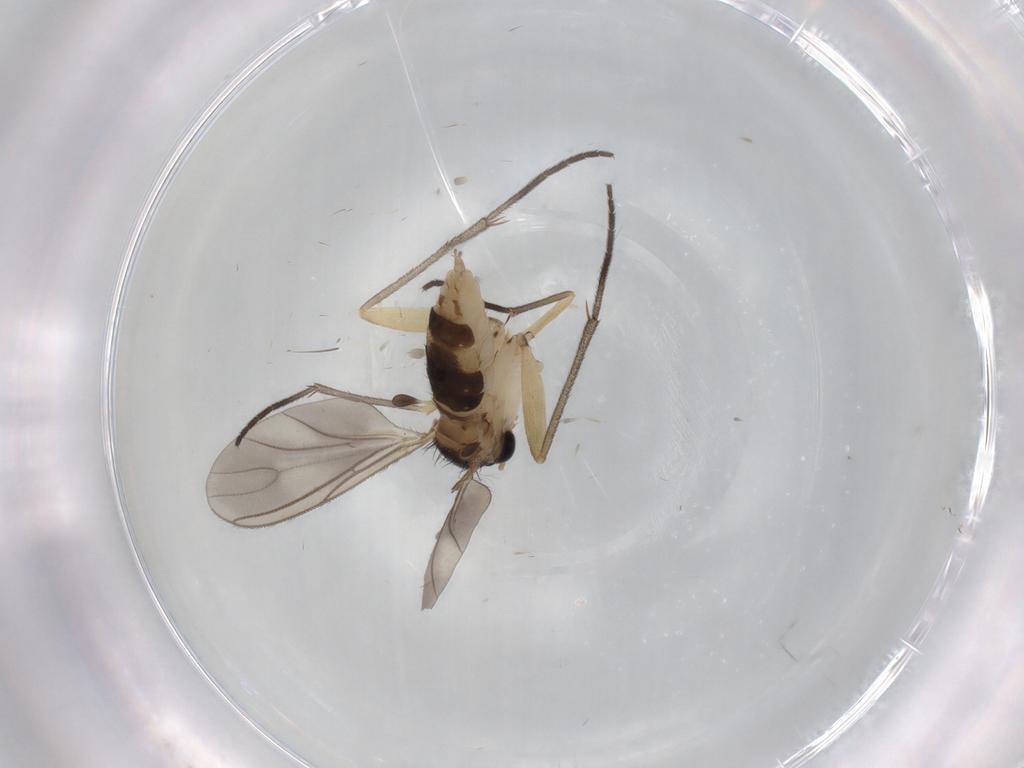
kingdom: Animalia
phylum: Arthropoda
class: Insecta
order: Diptera
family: Sciaridae
